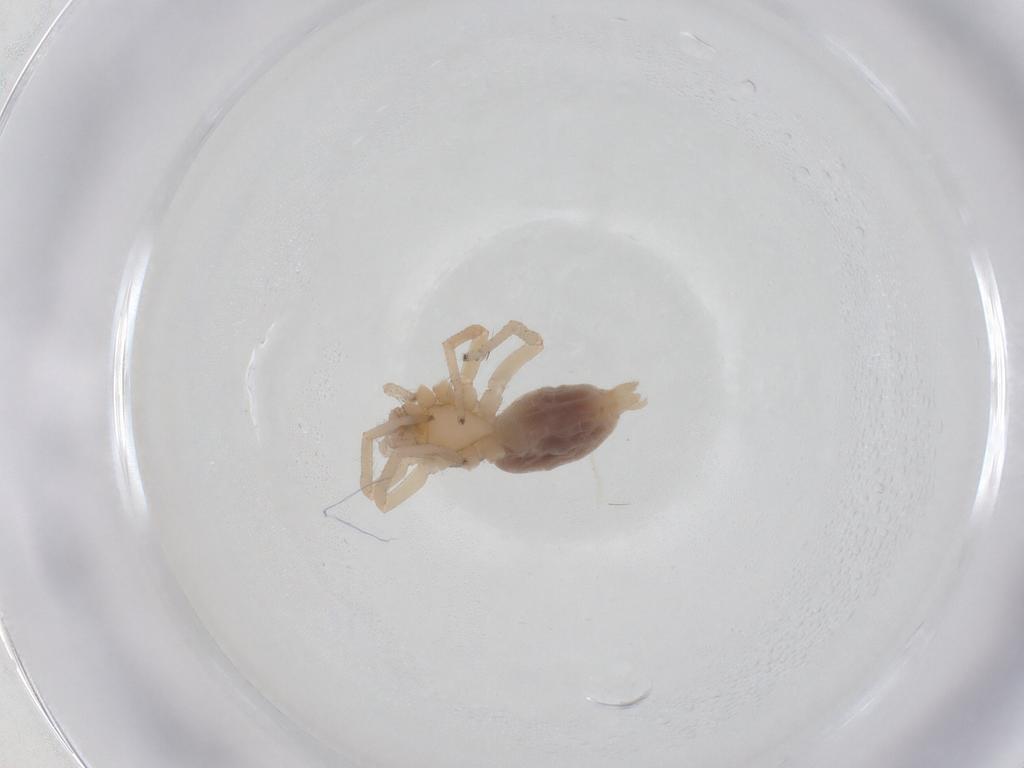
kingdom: Animalia
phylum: Arthropoda
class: Arachnida
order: Araneae
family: Clubionidae
